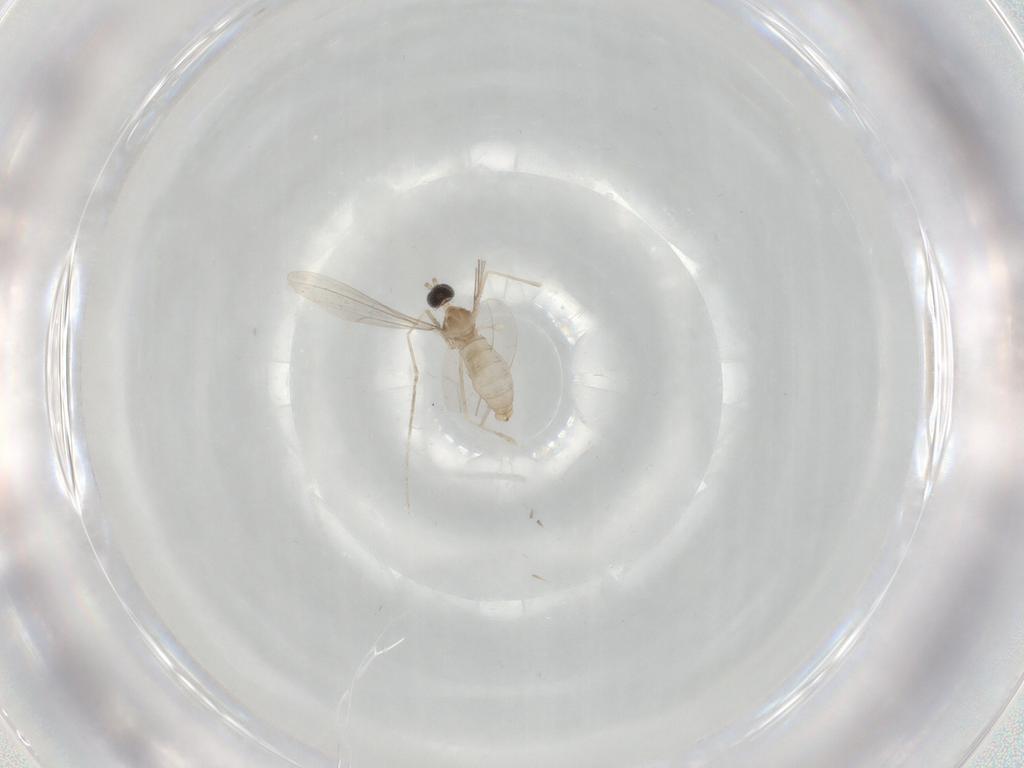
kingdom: Animalia
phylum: Arthropoda
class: Insecta
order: Diptera
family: Cecidomyiidae
